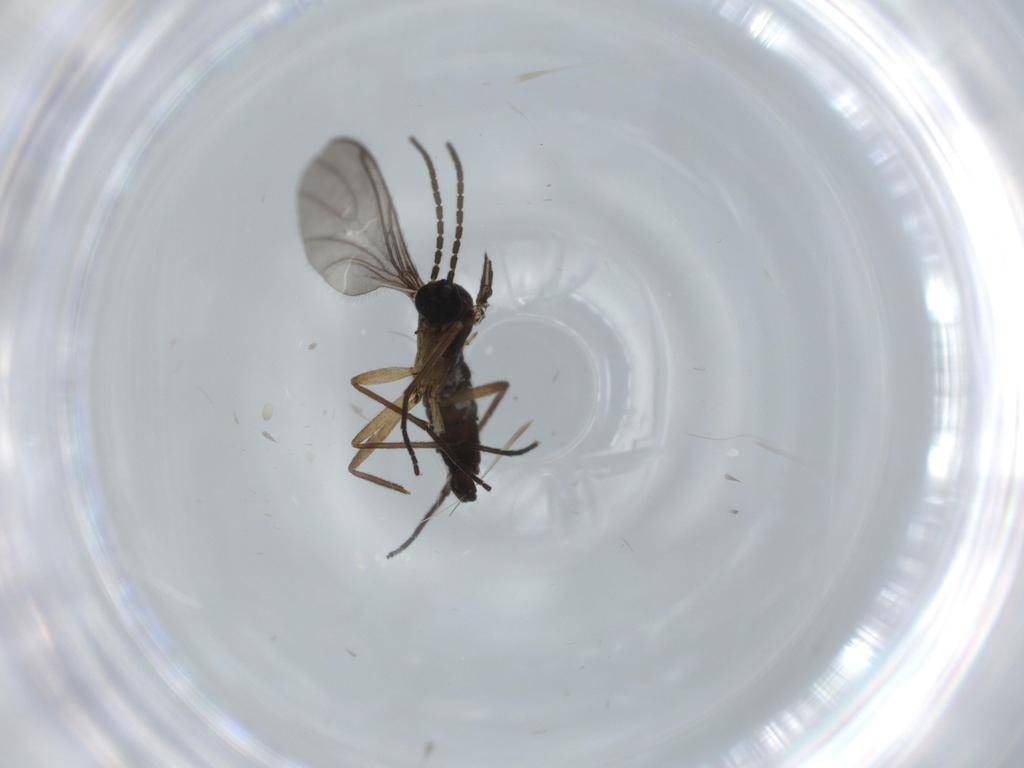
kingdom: Animalia
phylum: Arthropoda
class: Insecta
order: Diptera
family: Sciaridae
